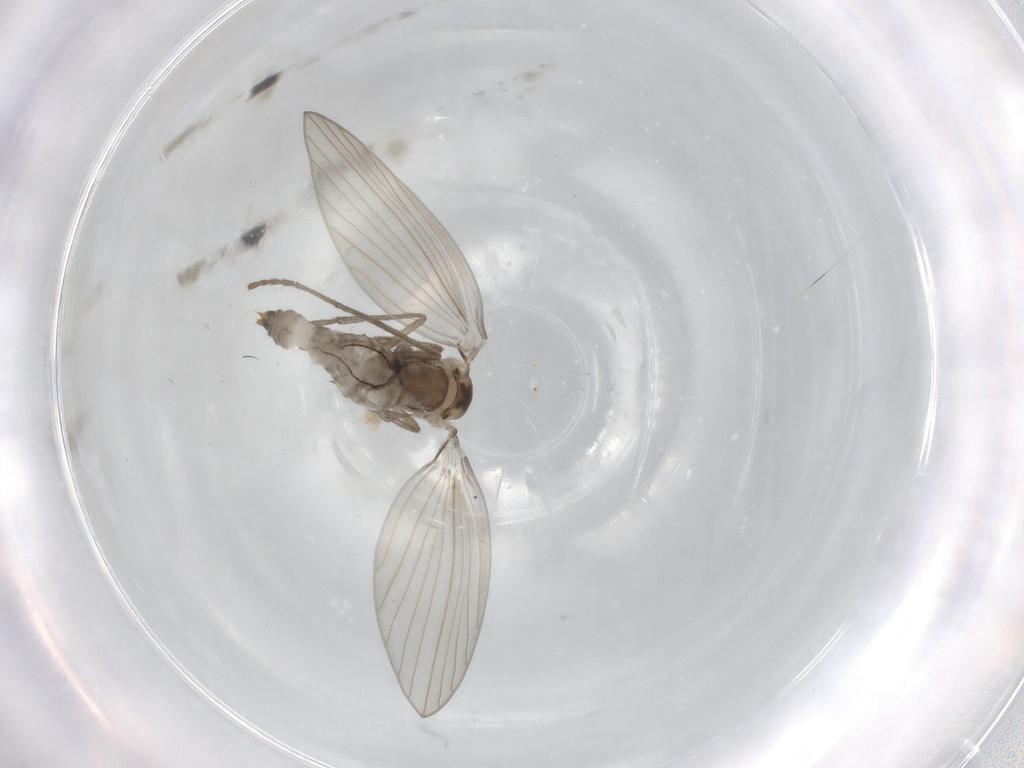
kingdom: Animalia
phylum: Arthropoda
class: Insecta
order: Diptera
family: Psychodidae
